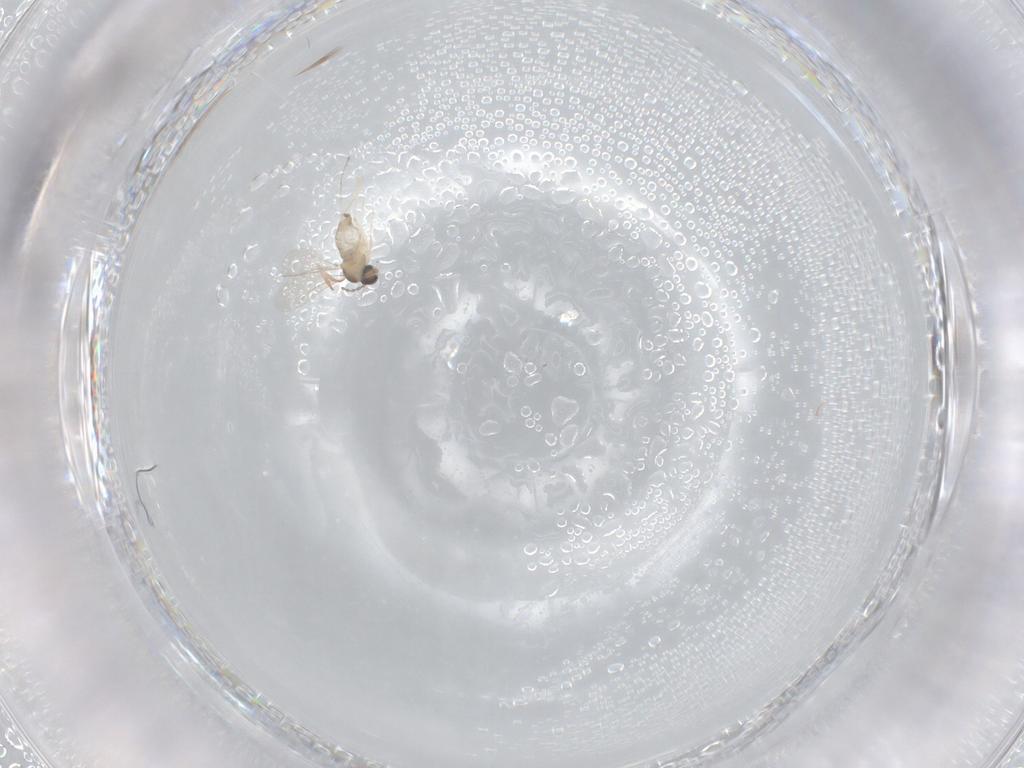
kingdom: Animalia
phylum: Arthropoda
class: Insecta
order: Diptera
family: Cecidomyiidae
